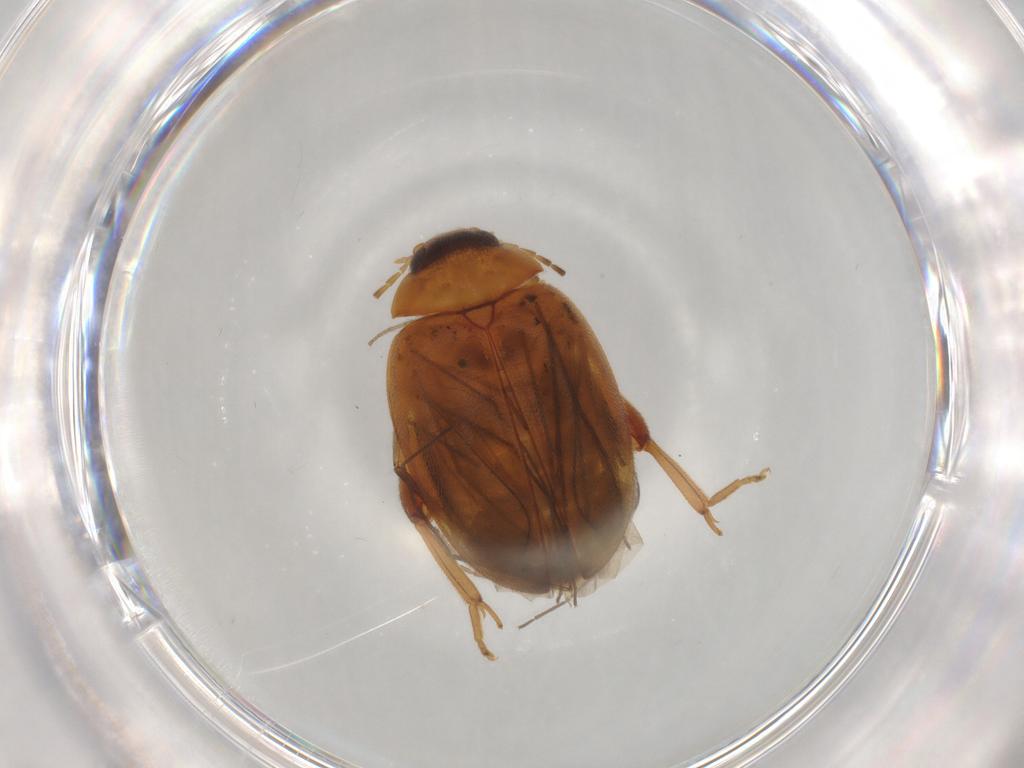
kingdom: Animalia
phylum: Arthropoda
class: Insecta
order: Coleoptera
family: Scirtidae
